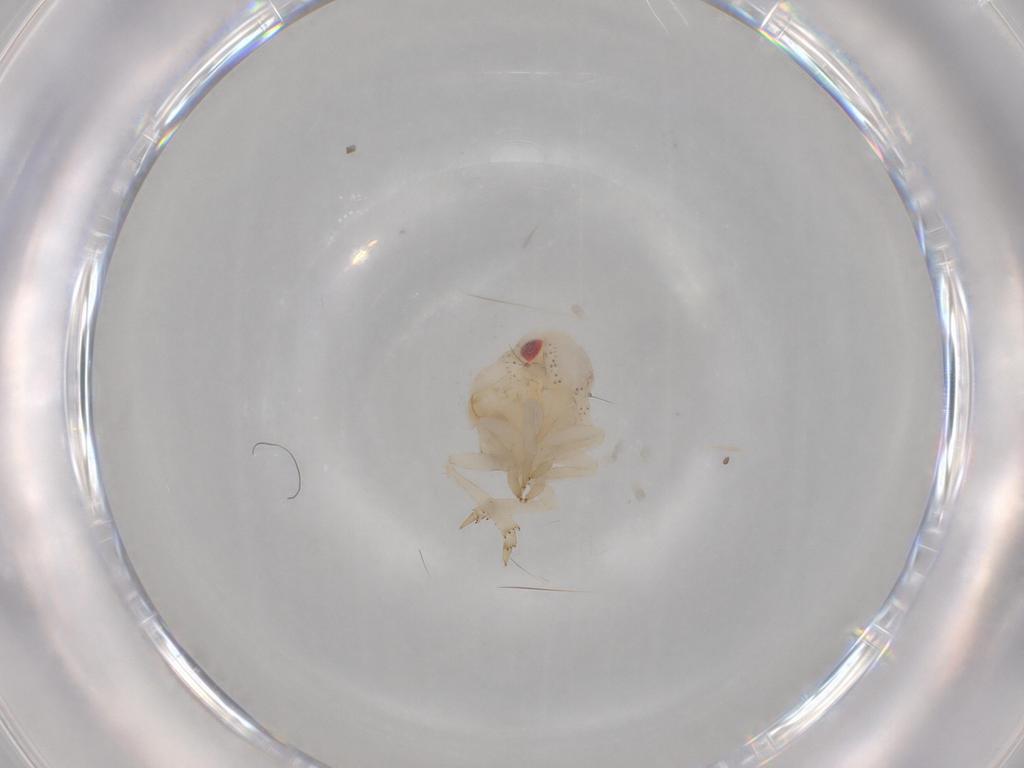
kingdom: Animalia
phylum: Arthropoda
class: Insecta
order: Hemiptera
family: Acanaloniidae
